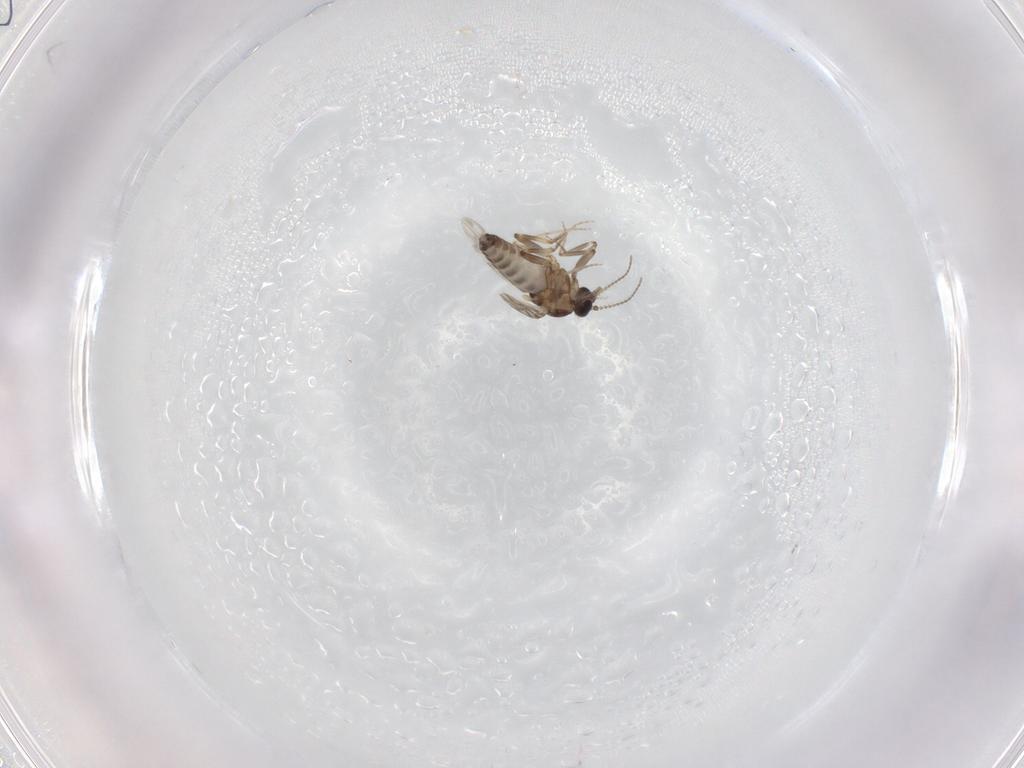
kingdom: Animalia
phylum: Arthropoda
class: Insecta
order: Diptera
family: Ceratopogonidae
